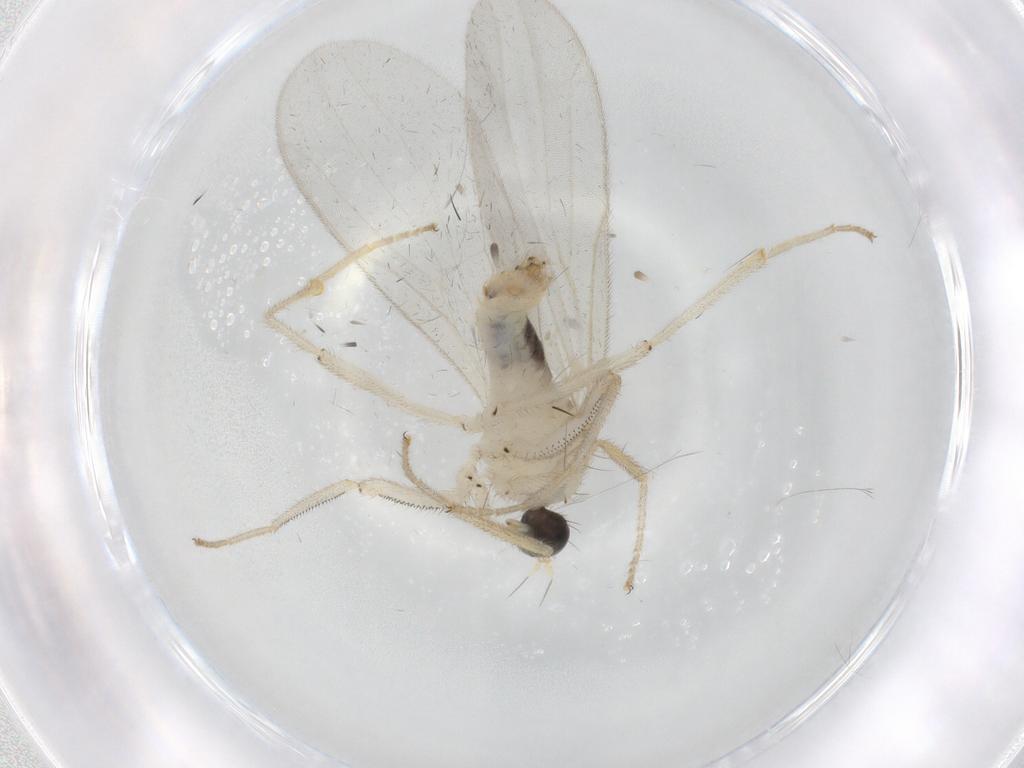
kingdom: Animalia
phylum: Arthropoda
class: Insecta
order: Diptera
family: Hybotidae
